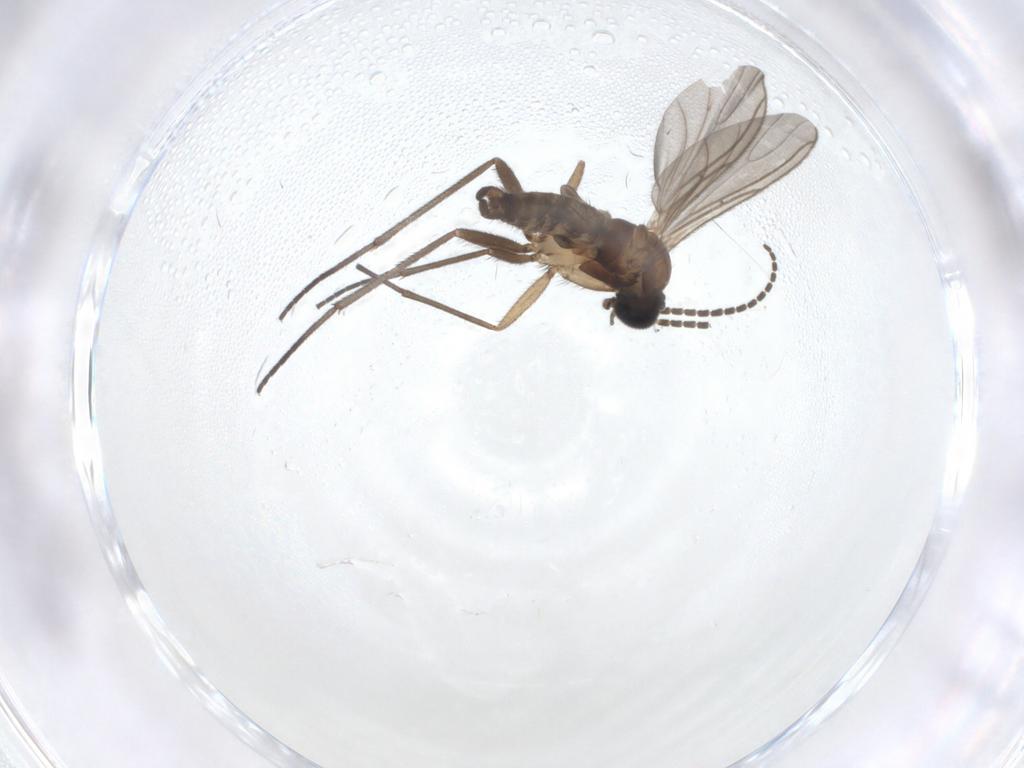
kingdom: Animalia
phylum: Arthropoda
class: Insecta
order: Diptera
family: Sciaridae
